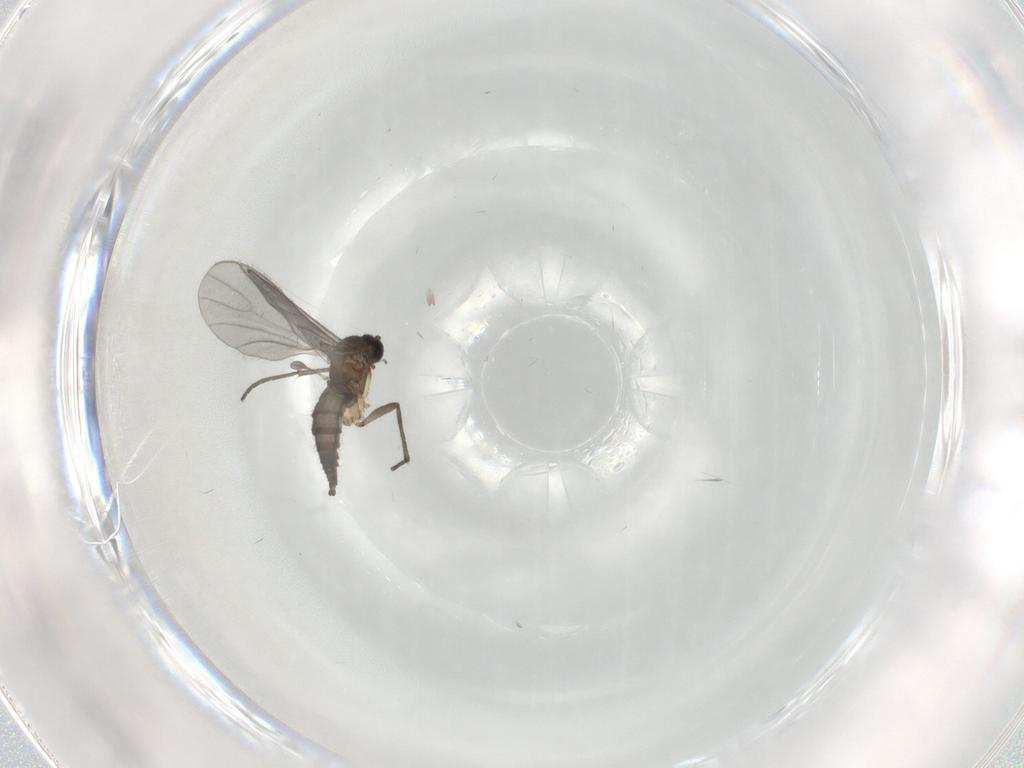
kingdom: Animalia
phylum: Arthropoda
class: Insecta
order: Diptera
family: Sciaridae
